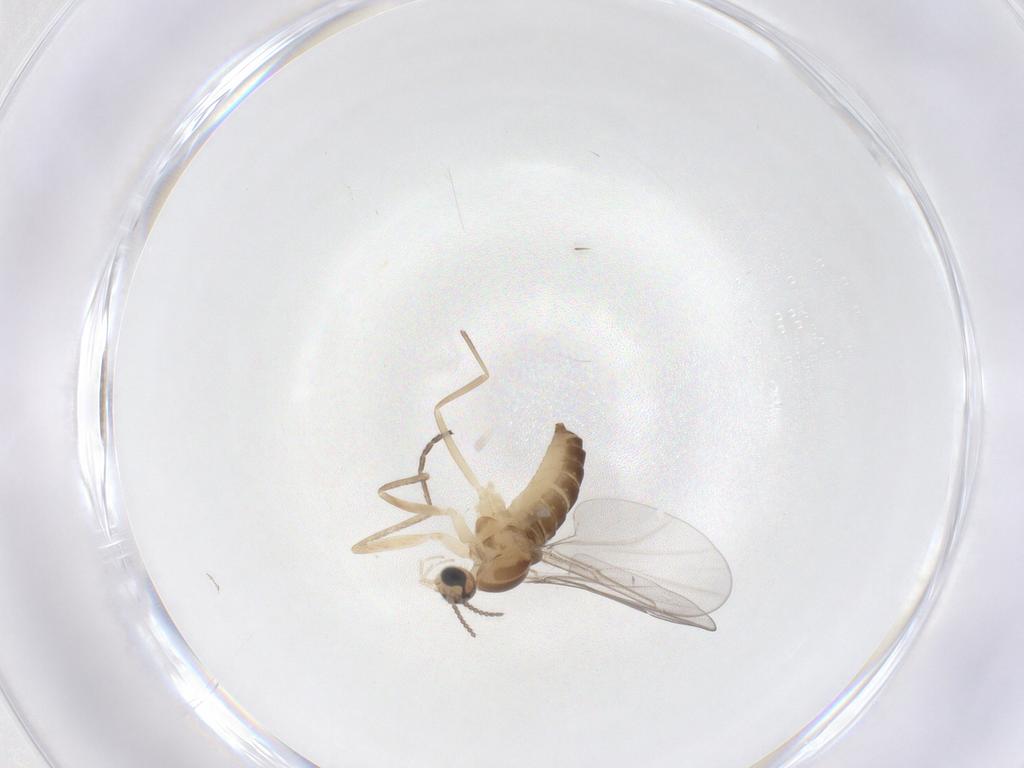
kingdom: Animalia
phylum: Arthropoda
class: Insecta
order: Diptera
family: Cecidomyiidae
